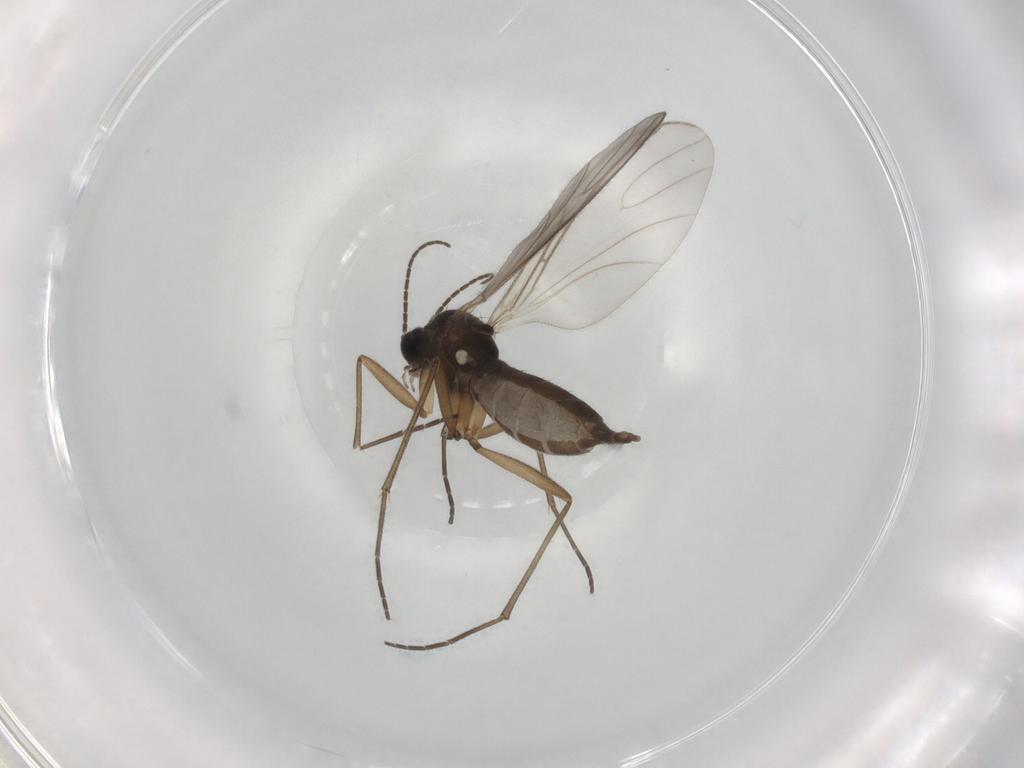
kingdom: Animalia
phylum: Arthropoda
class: Insecta
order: Diptera
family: Sciaridae
